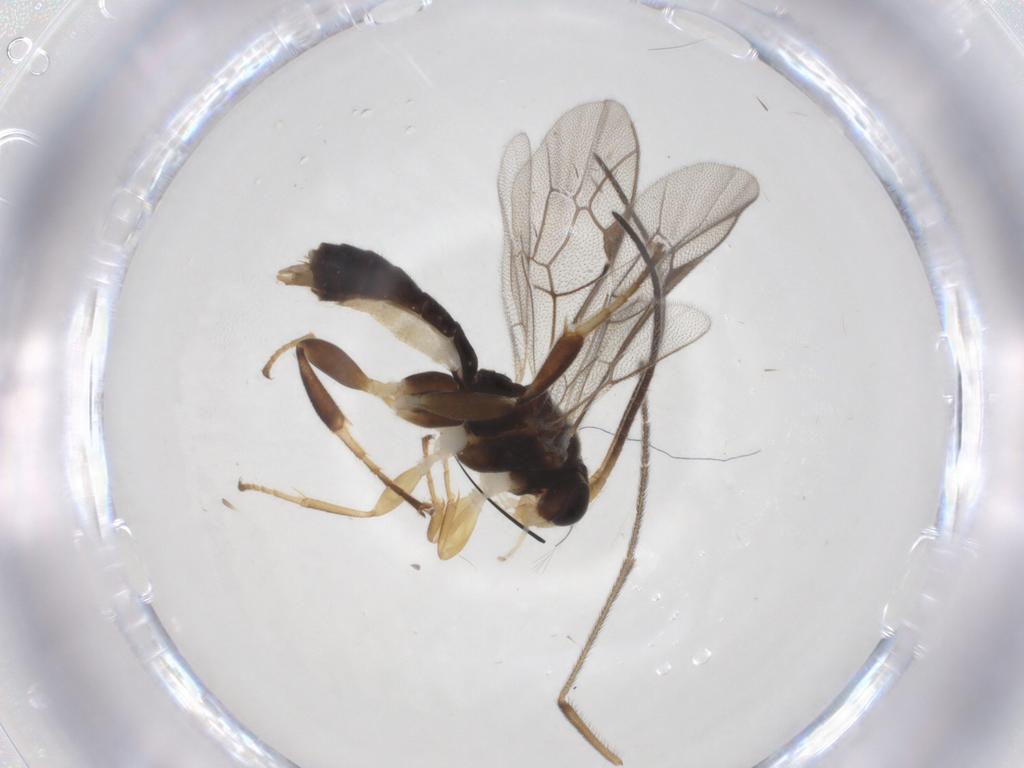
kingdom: Animalia
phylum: Arthropoda
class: Insecta
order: Hymenoptera
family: Ichneumonidae
